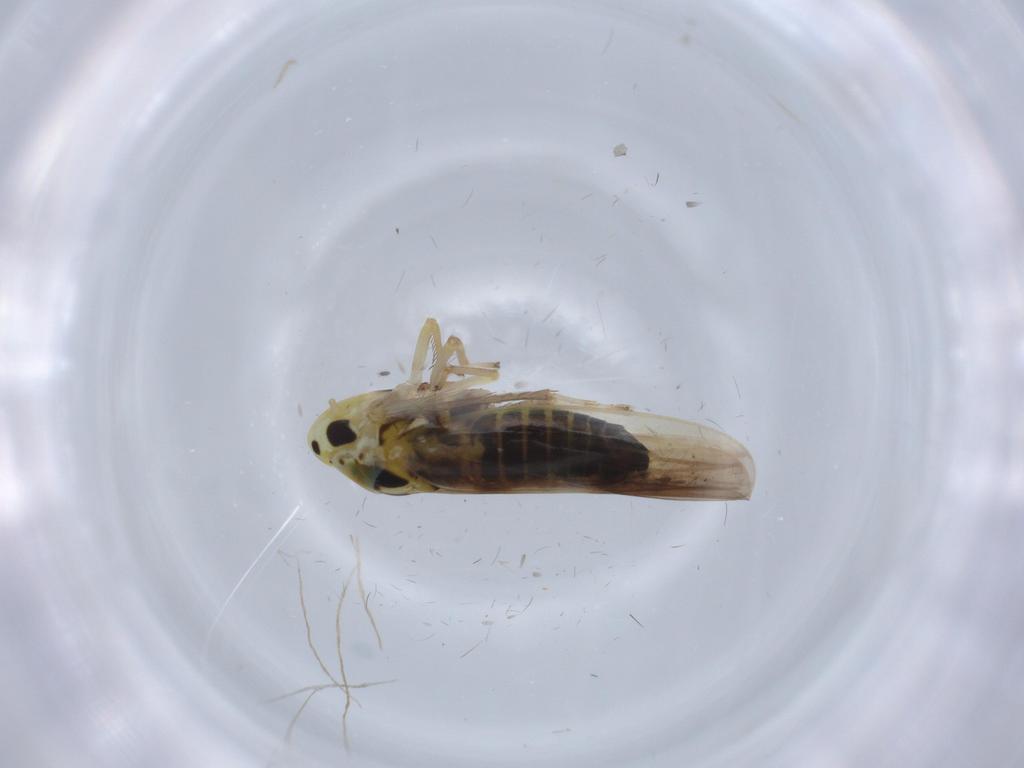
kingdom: Animalia
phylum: Arthropoda
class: Insecta
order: Hemiptera
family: Cicadellidae
